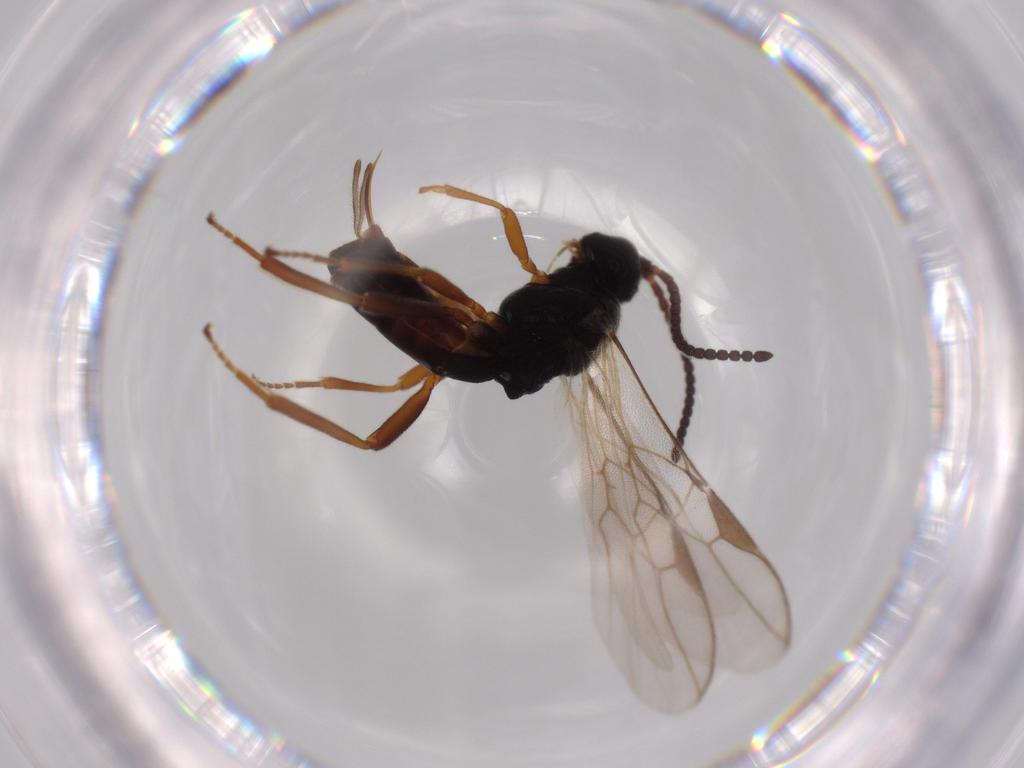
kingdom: Animalia
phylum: Arthropoda
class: Insecta
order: Hymenoptera
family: Braconidae
